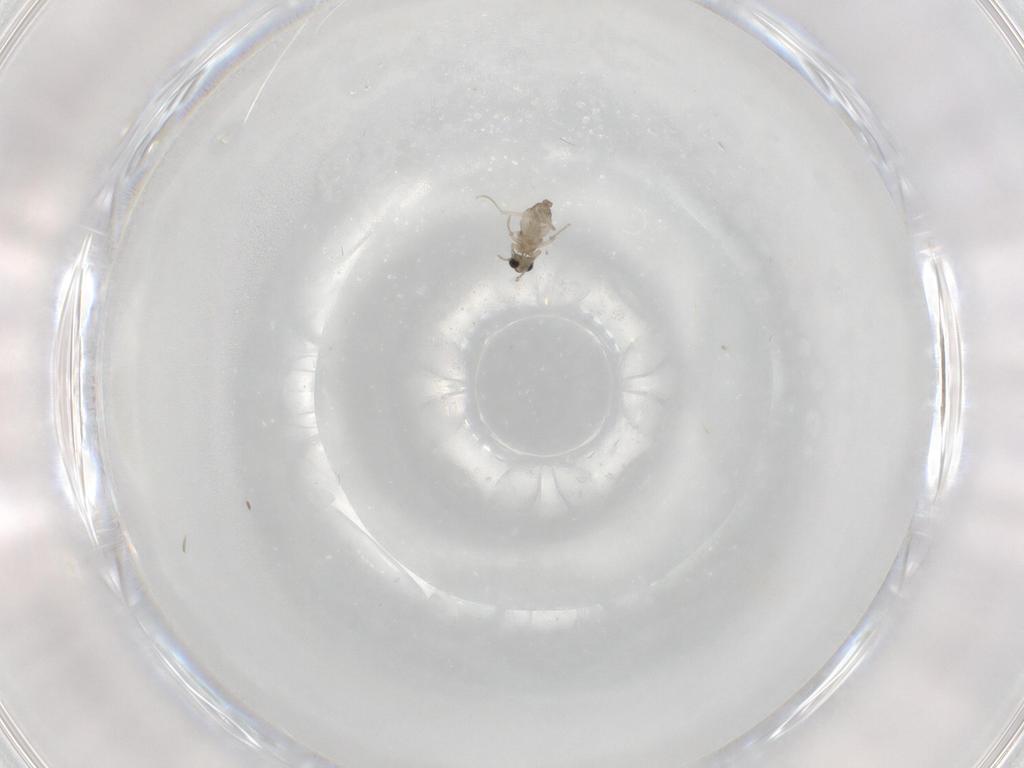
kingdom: Animalia
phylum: Arthropoda
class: Insecta
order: Diptera
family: Cecidomyiidae
